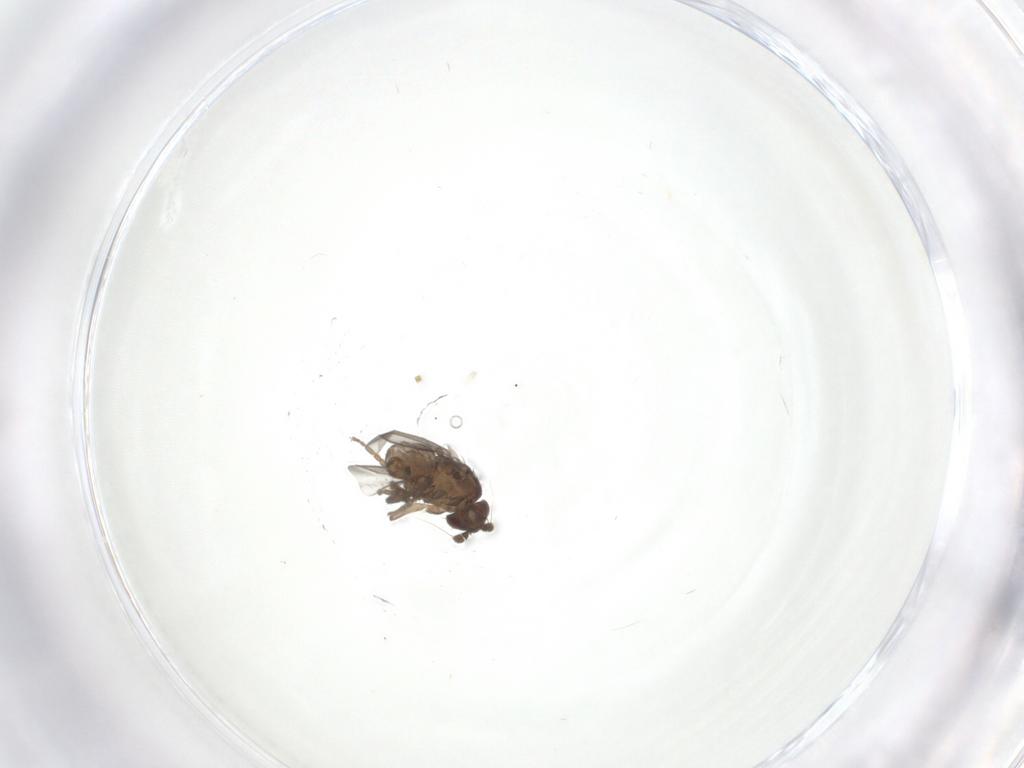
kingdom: Animalia
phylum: Arthropoda
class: Insecta
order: Diptera
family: Sphaeroceridae
